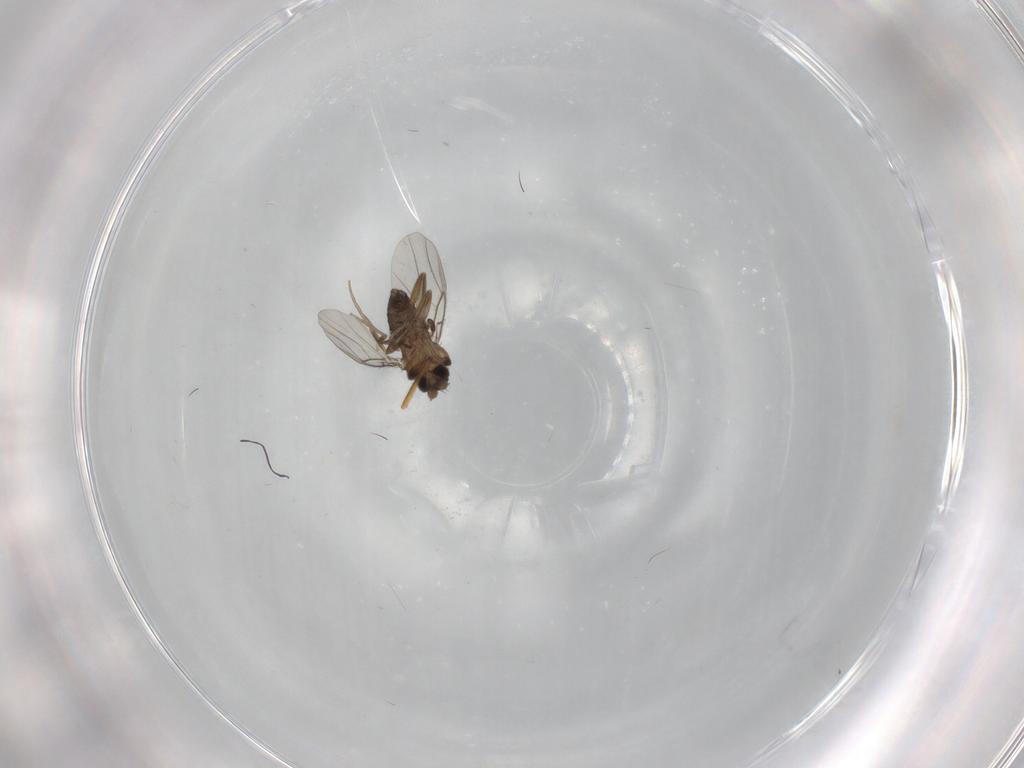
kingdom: Animalia
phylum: Arthropoda
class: Insecta
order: Diptera
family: Sciaridae
